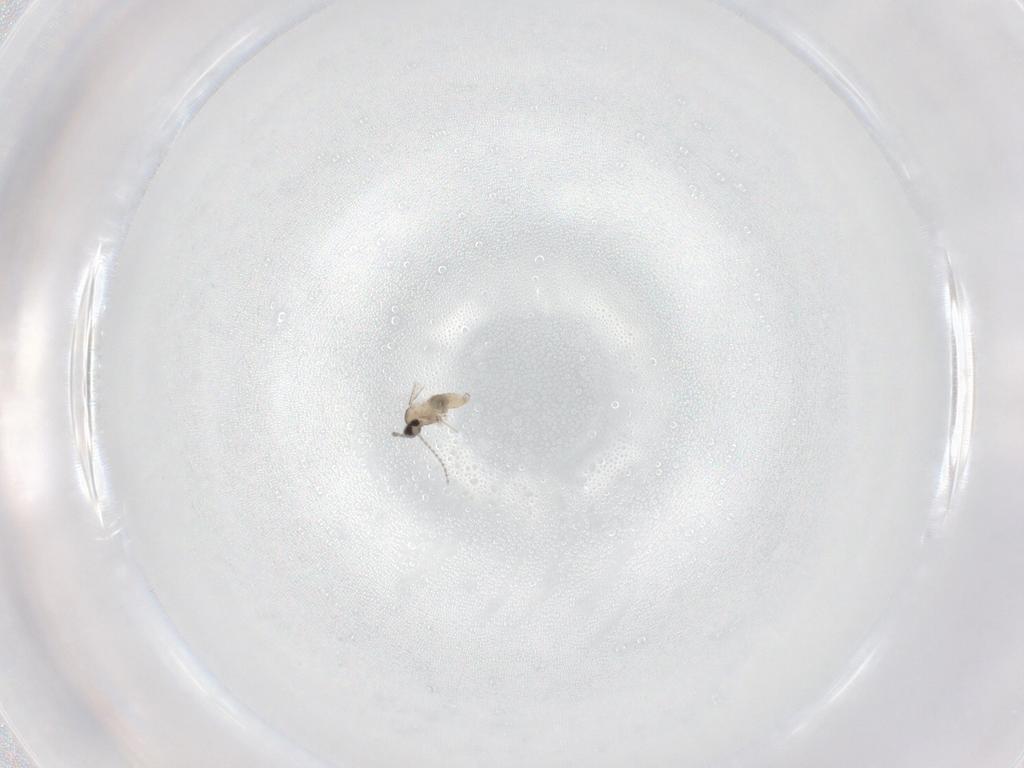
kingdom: Animalia
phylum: Arthropoda
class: Insecta
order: Diptera
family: Cecidomyiidae
